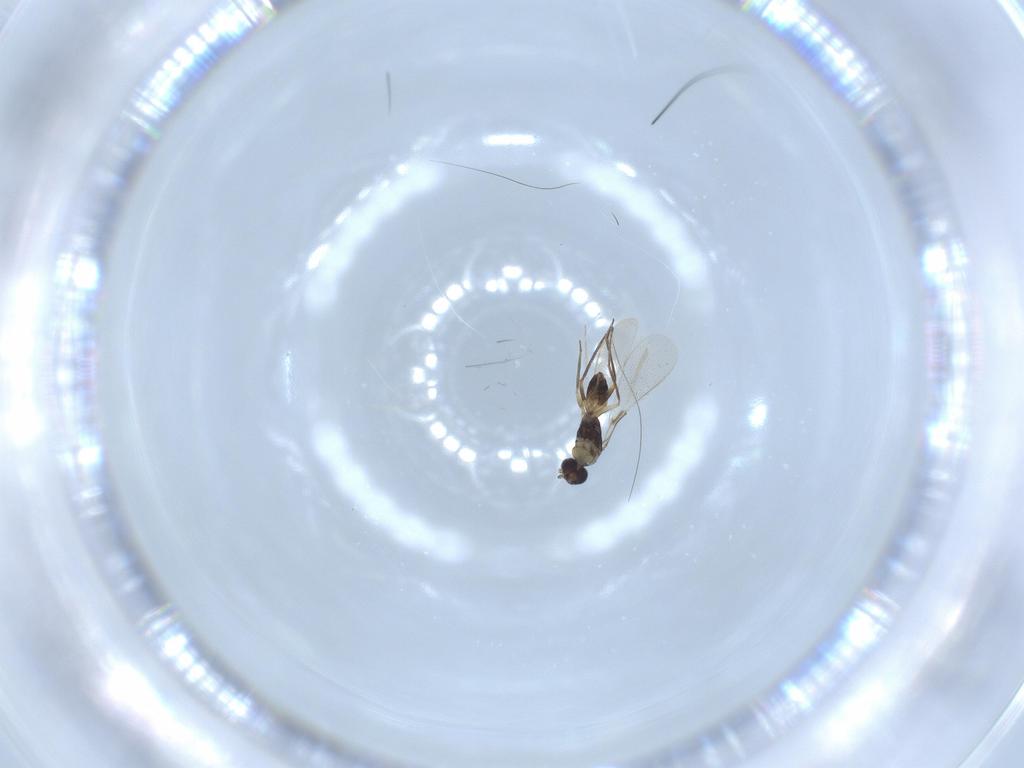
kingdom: Animalia
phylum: Arthropoda
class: Insecta
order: Hymenoptera
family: Mymaridae
